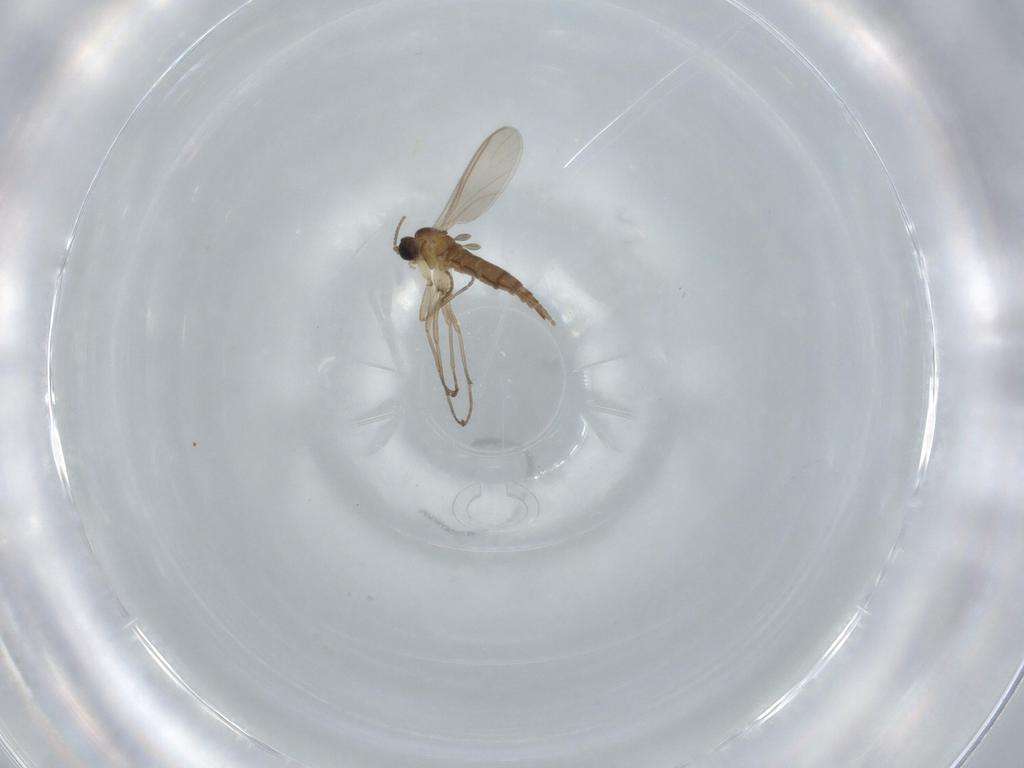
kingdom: Animalia
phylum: Arthropoda
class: Insecta
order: Diptera
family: Sciaridae
